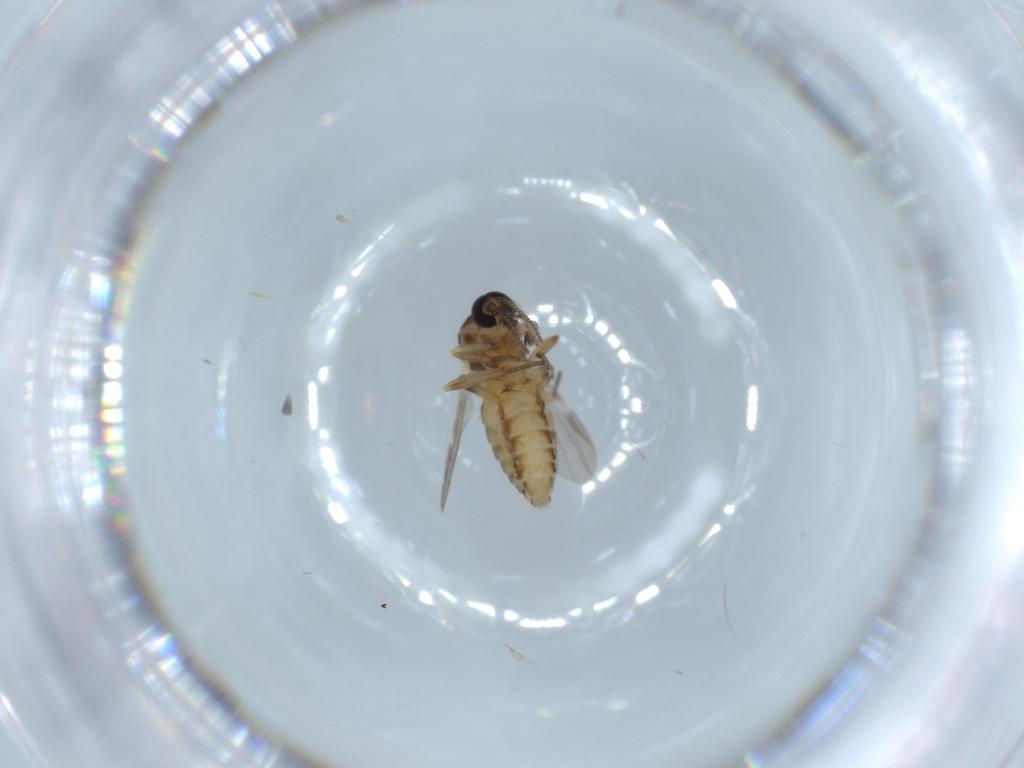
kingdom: Animalia
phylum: Arthropoda
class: Insecta
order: Diptera
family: Ceratopogonidae
